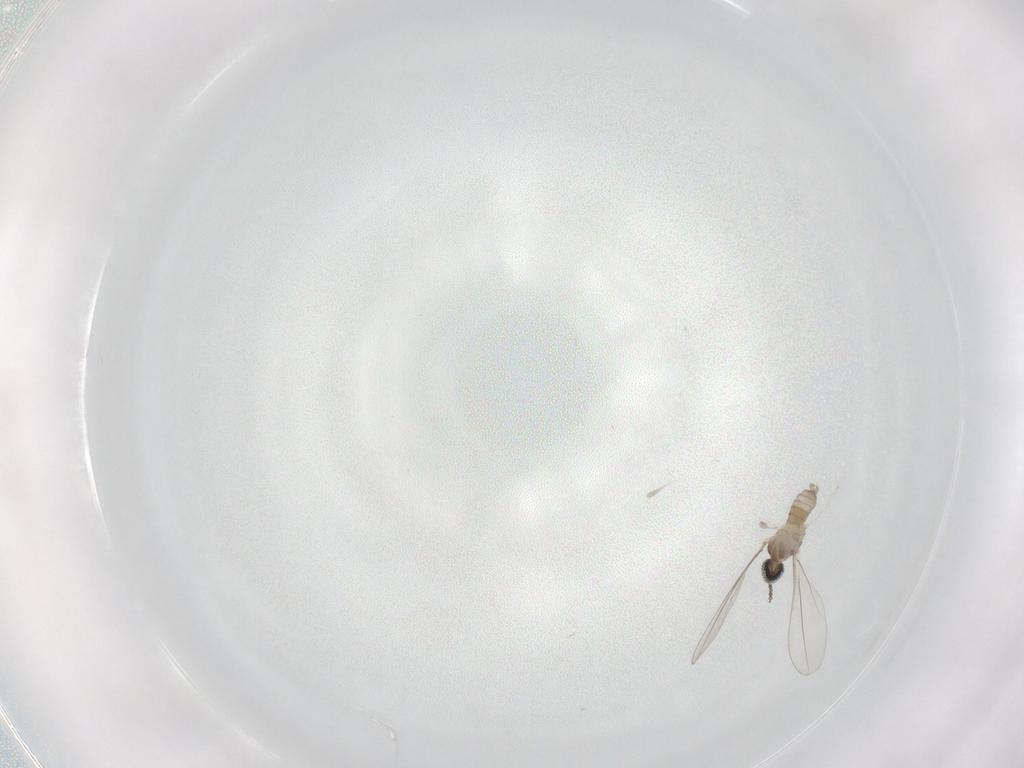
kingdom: Animalia
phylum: Arthropoda
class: Insecta
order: Diptera
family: Cecidomyiidae
